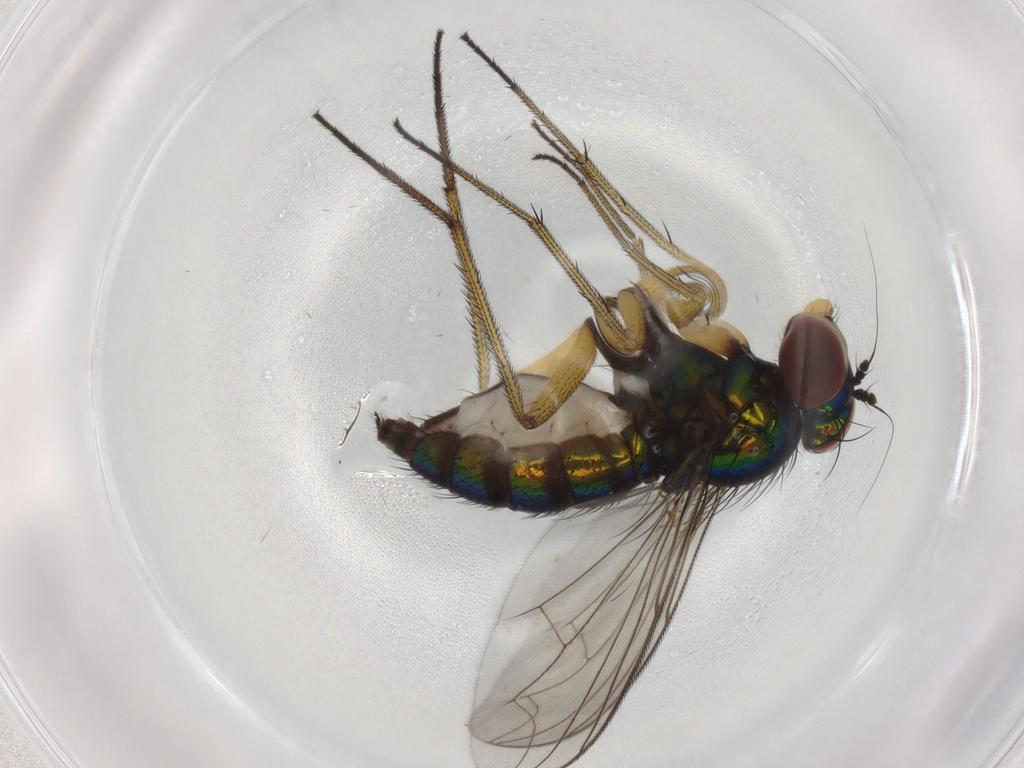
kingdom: Animalia
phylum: Arthropoda
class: Insecta
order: Diptera
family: Dolichopodidae
